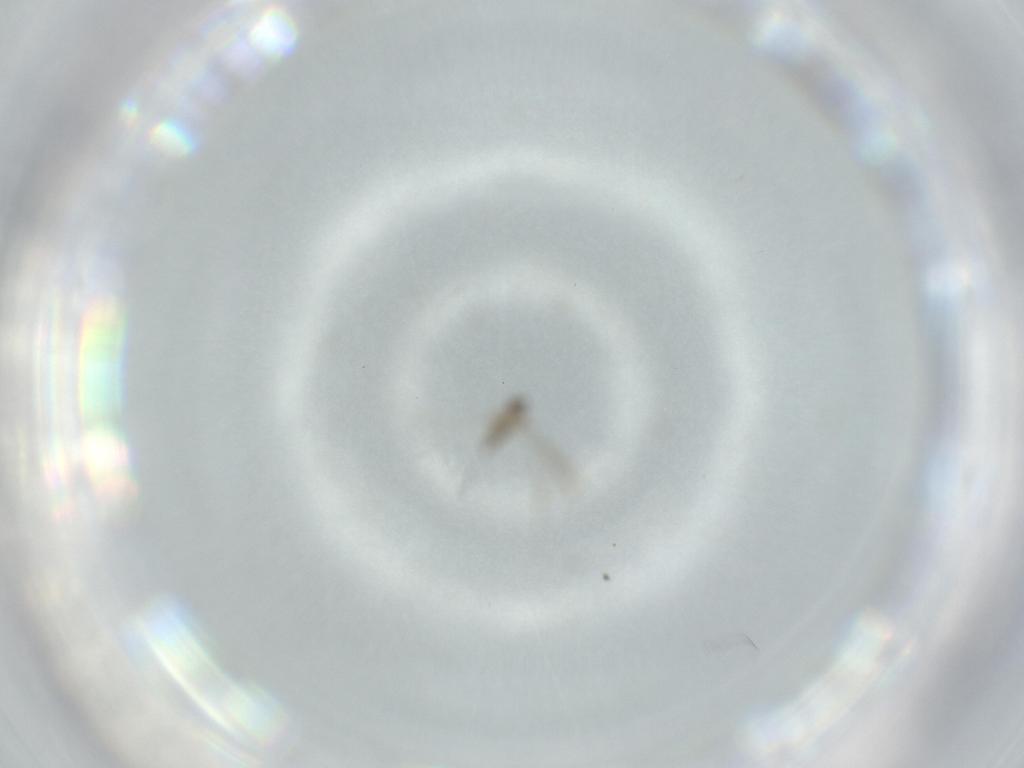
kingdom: Animalia
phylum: Arthropoda
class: Insecta
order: Diptera
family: Cecidomyiidae
